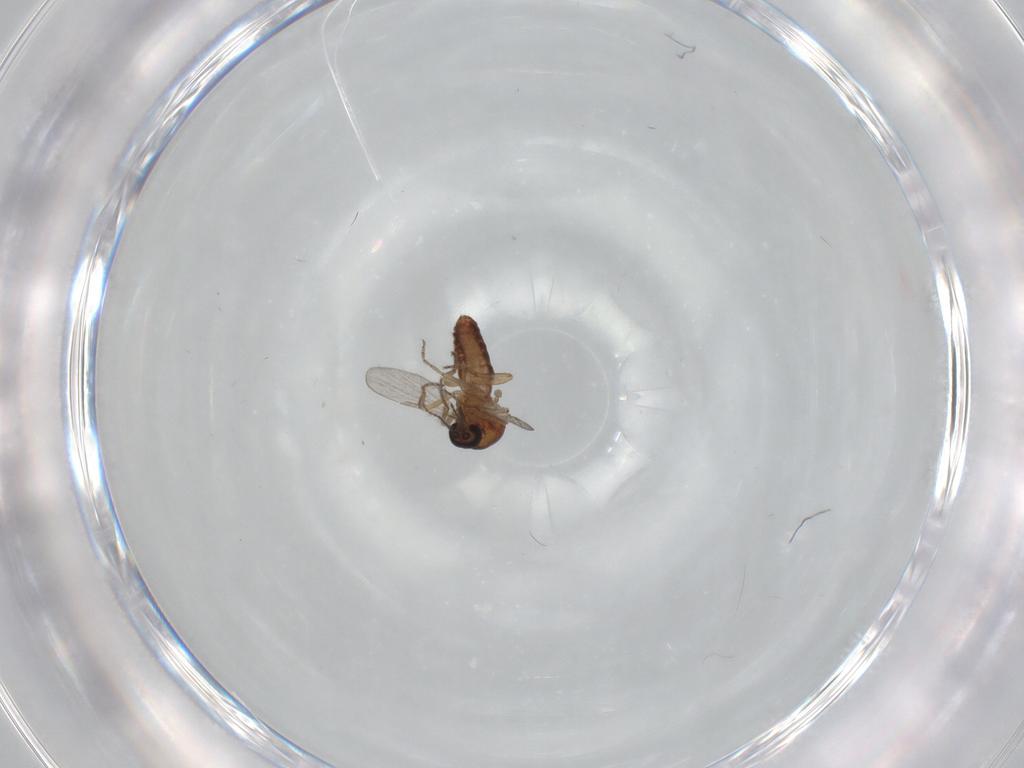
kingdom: Animalia
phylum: Arthropoda
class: Insecta
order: Diptera
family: Ceratopogonidae
